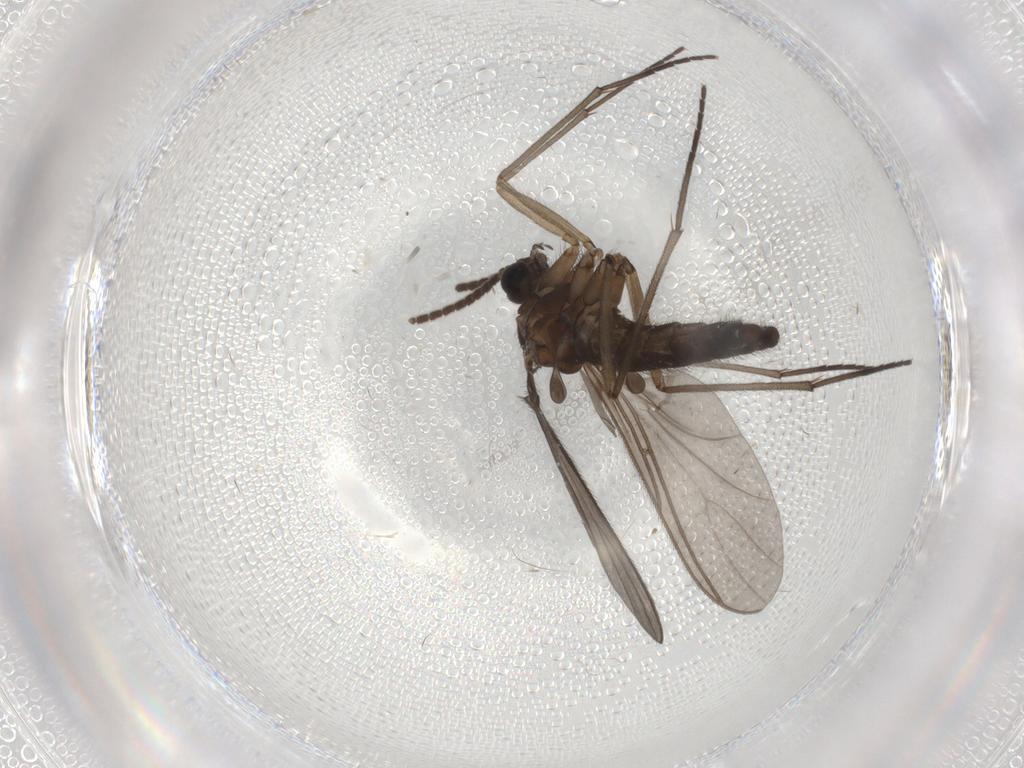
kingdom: Animalia
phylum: Arthropoda
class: Insecta
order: Diptera
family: Sciaridae
